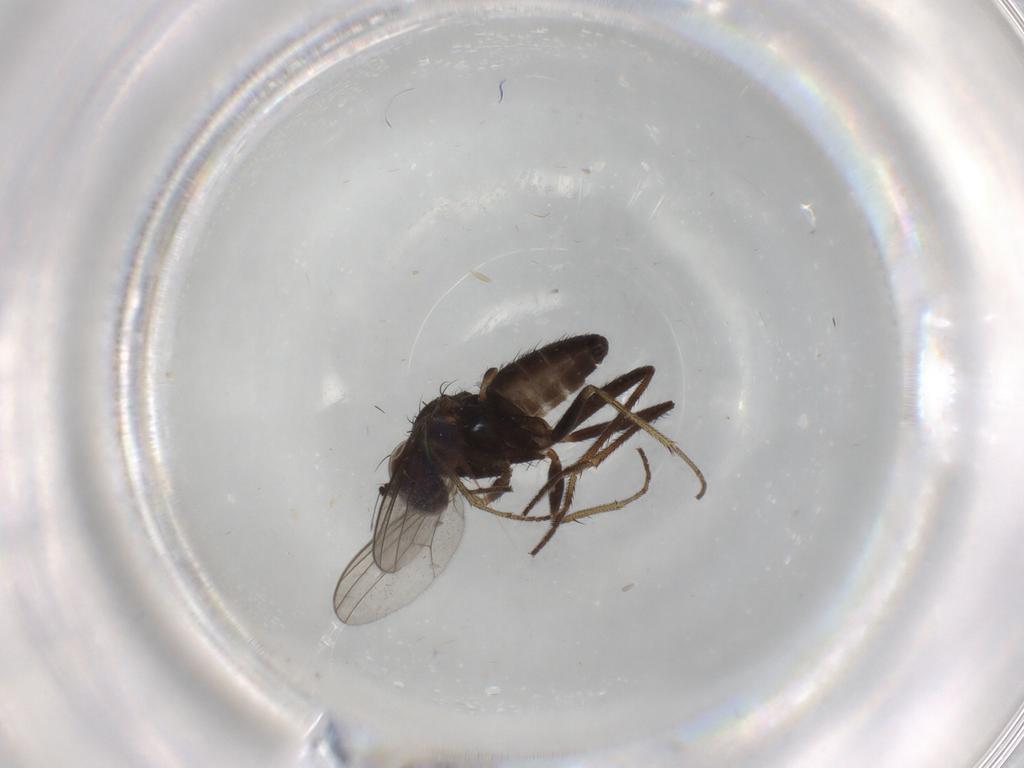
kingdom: Animalia
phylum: Arthropoda
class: Insecta
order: Diptera
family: Dolichopodidae
